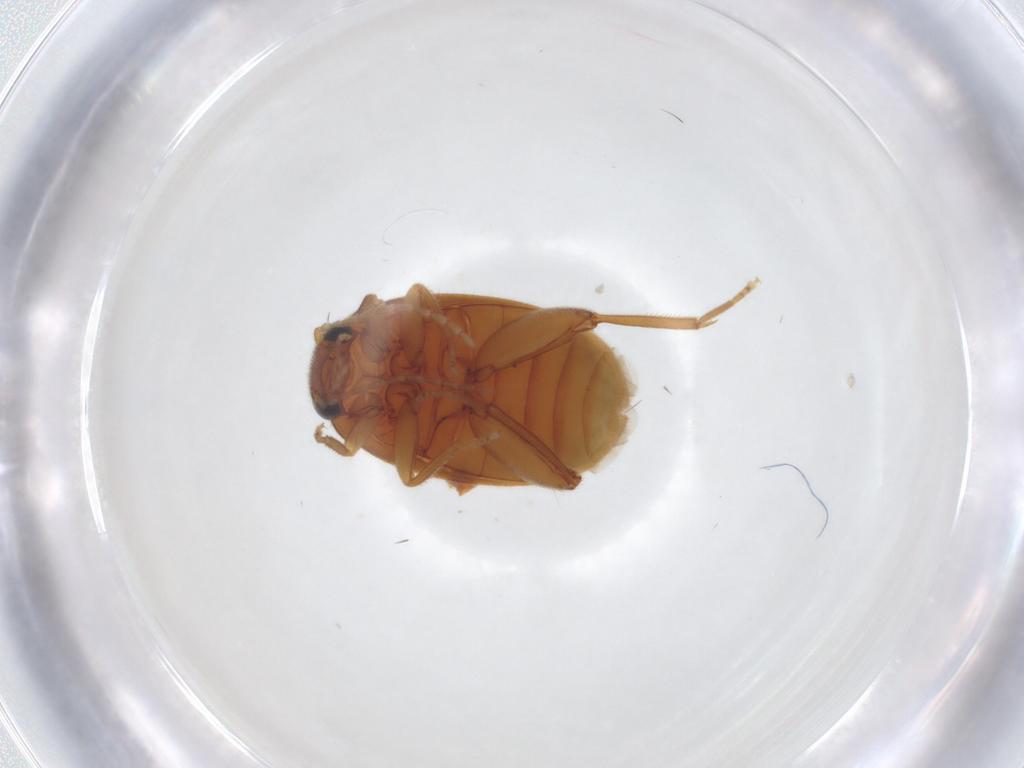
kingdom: Animalia
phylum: Arthropoda
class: Insecta
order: Coleoptera
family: Scirtidae
